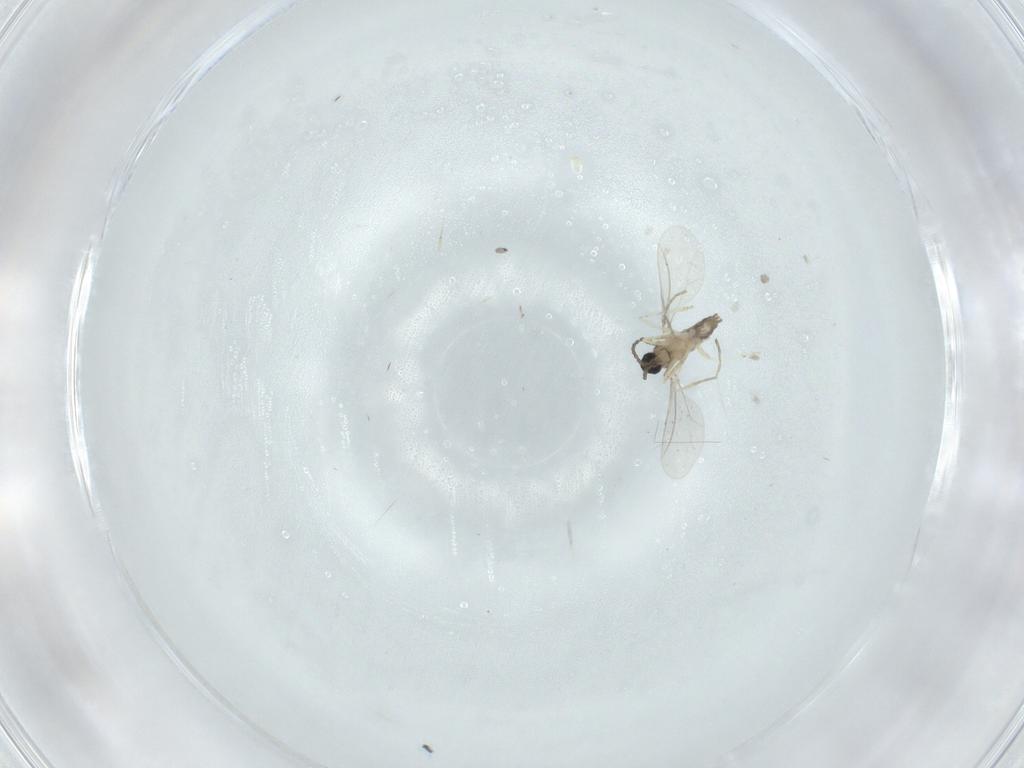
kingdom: Animalia
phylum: Arthropoda
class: Insecta
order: Diptera
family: Cecidomyiidae
